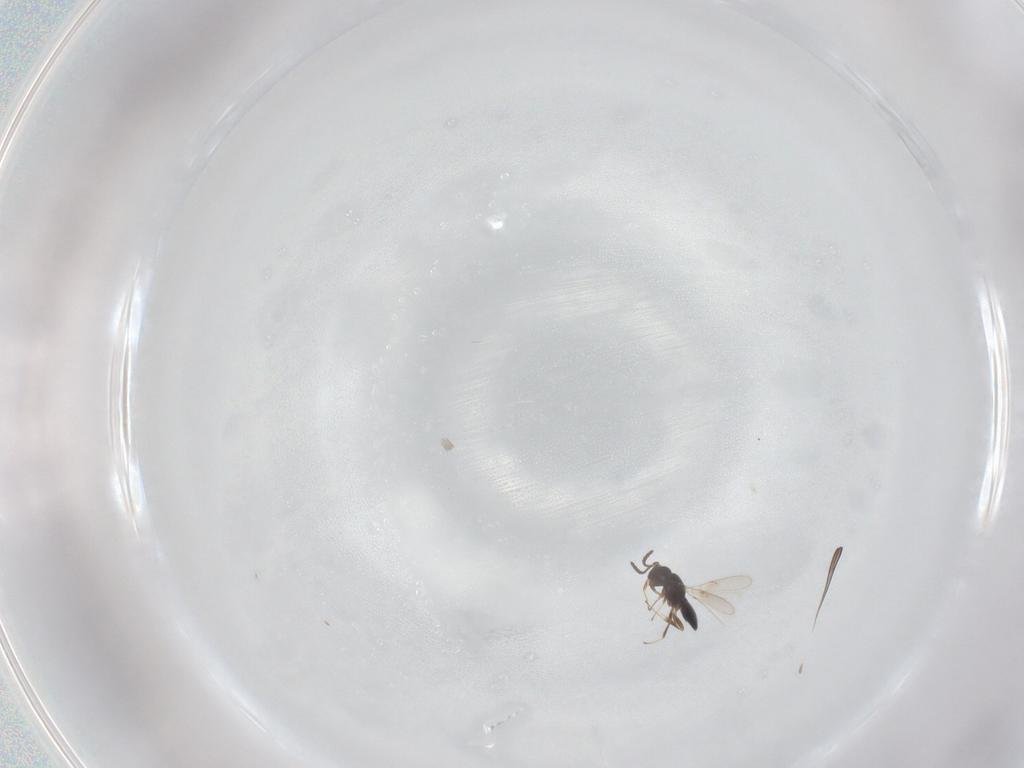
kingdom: Animalia
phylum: Arthropoda
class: Insecta
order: Hymenoptera
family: Scelionidae
